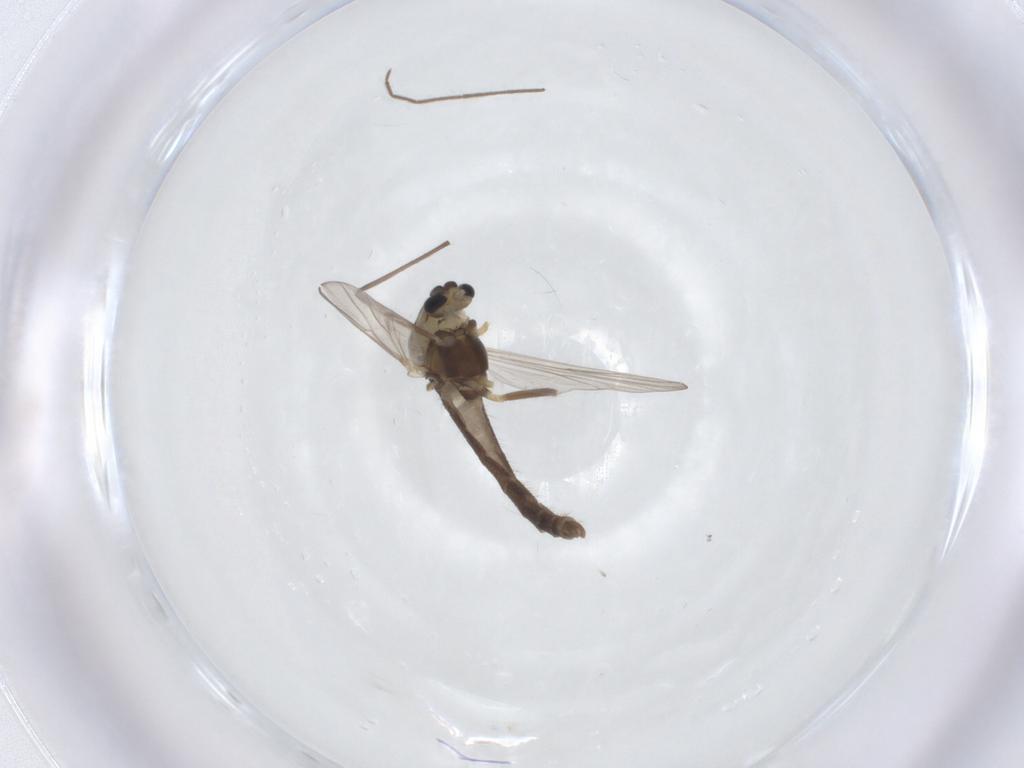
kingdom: Animalia
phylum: Arthropoda
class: Insecta
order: Diptera
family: Chironomidae
